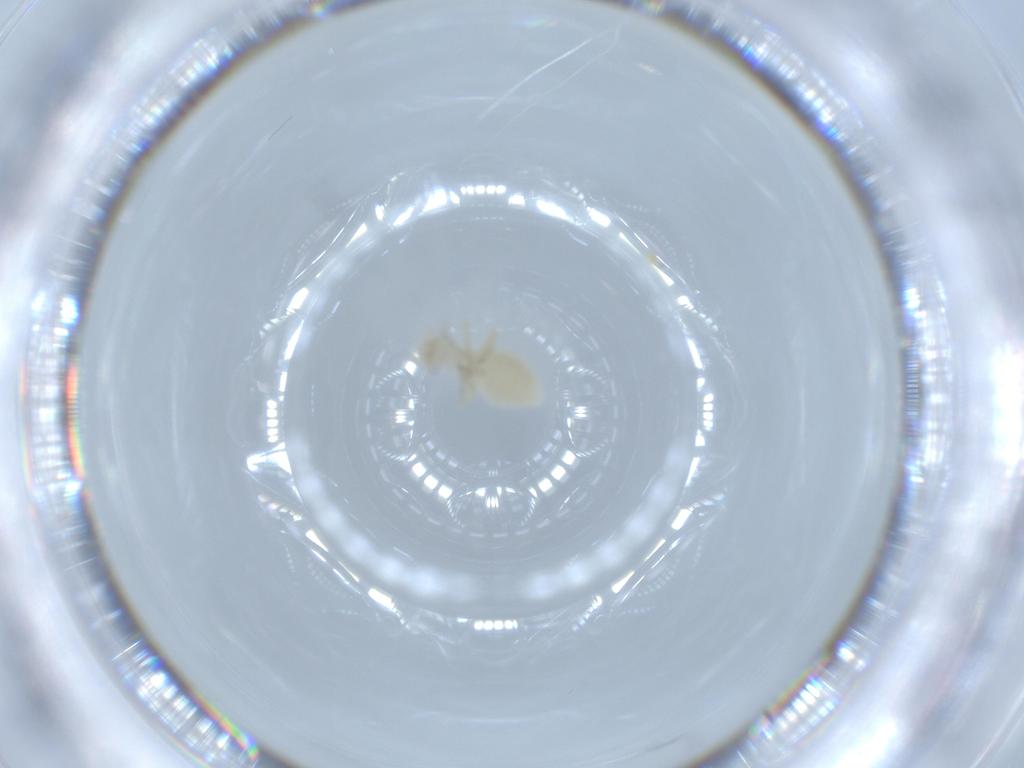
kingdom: Animalia
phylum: Arthropoda
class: Insecta
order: Psocodea
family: Caeciliusidae
